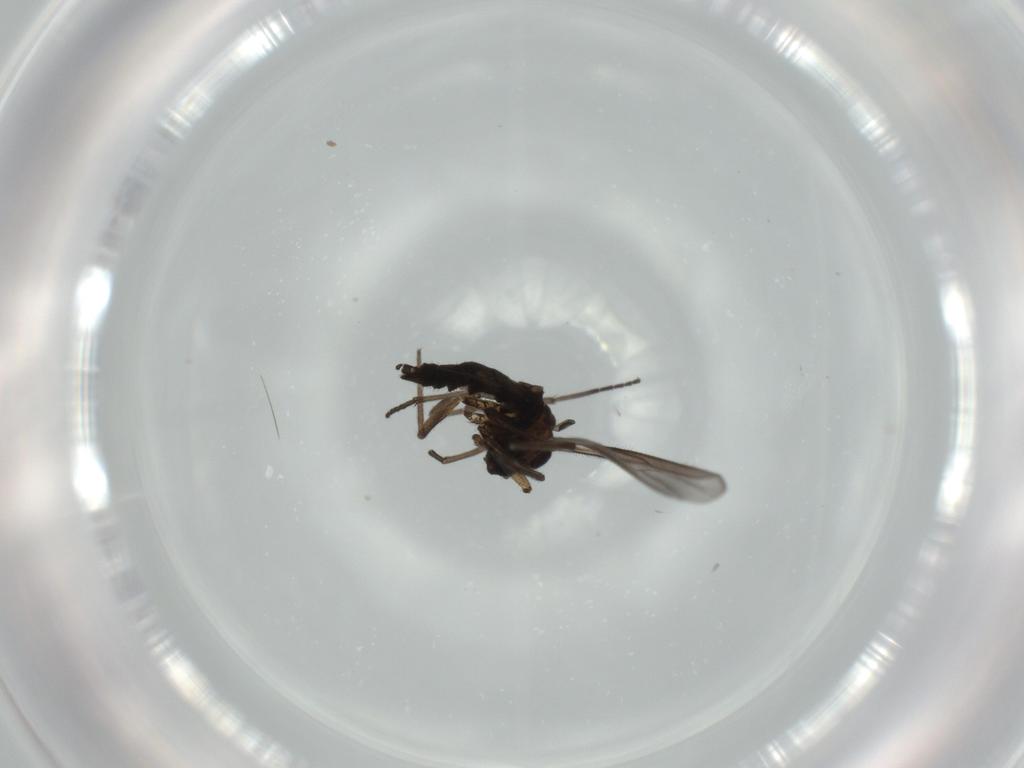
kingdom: Animalia
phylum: Arthropoda
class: Insecta
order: Diptera
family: Sciaridae
